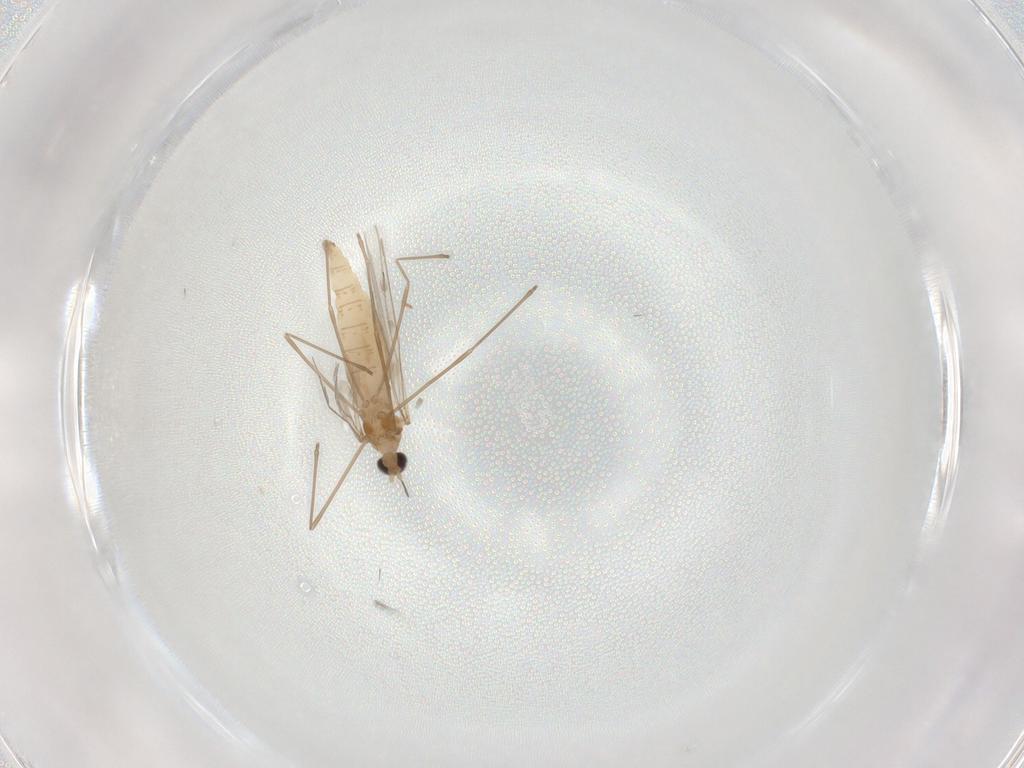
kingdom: Animalia
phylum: Arthropoda
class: Insecta
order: Diptera
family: Cecidomyiidae
